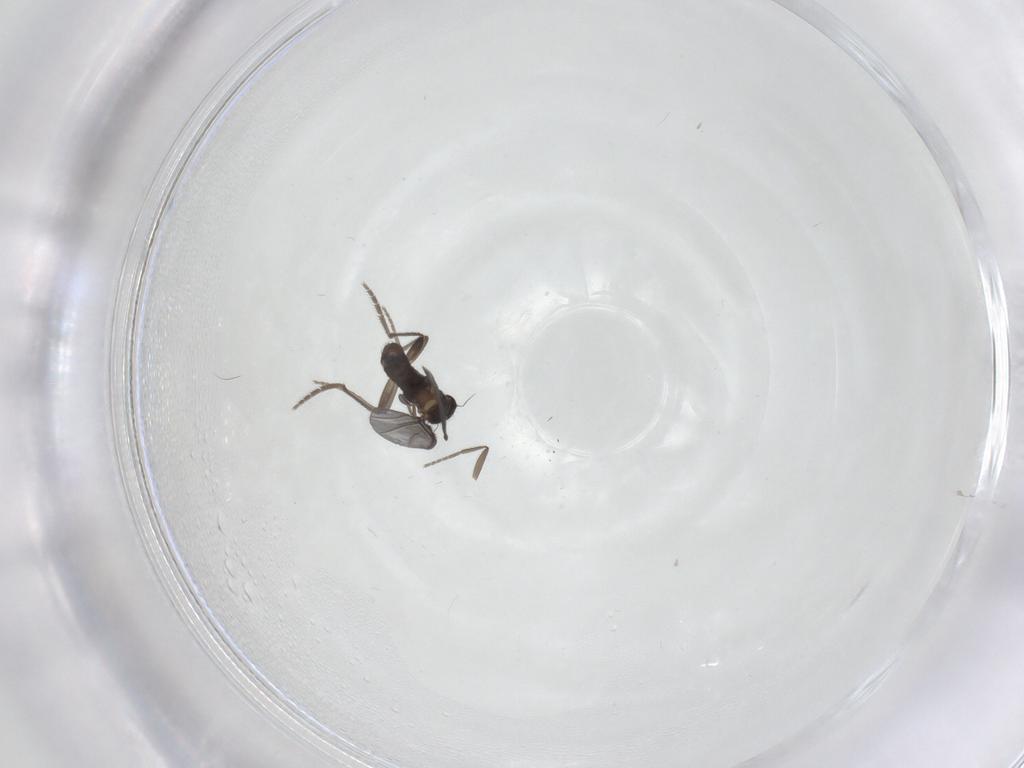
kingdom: Animalia
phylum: Arthropoda
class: Insecta
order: Diptera
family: Phoridae
